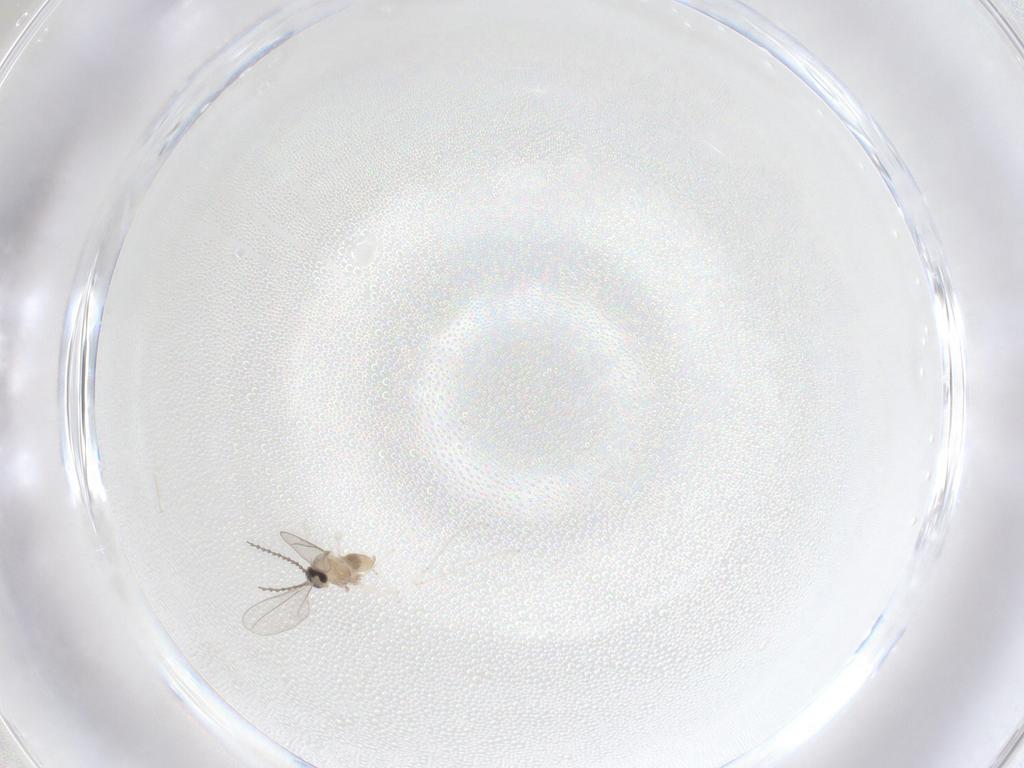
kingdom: Animalia
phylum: Arthropoda
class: Insecta
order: Diptera
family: Cecidomyiidae
